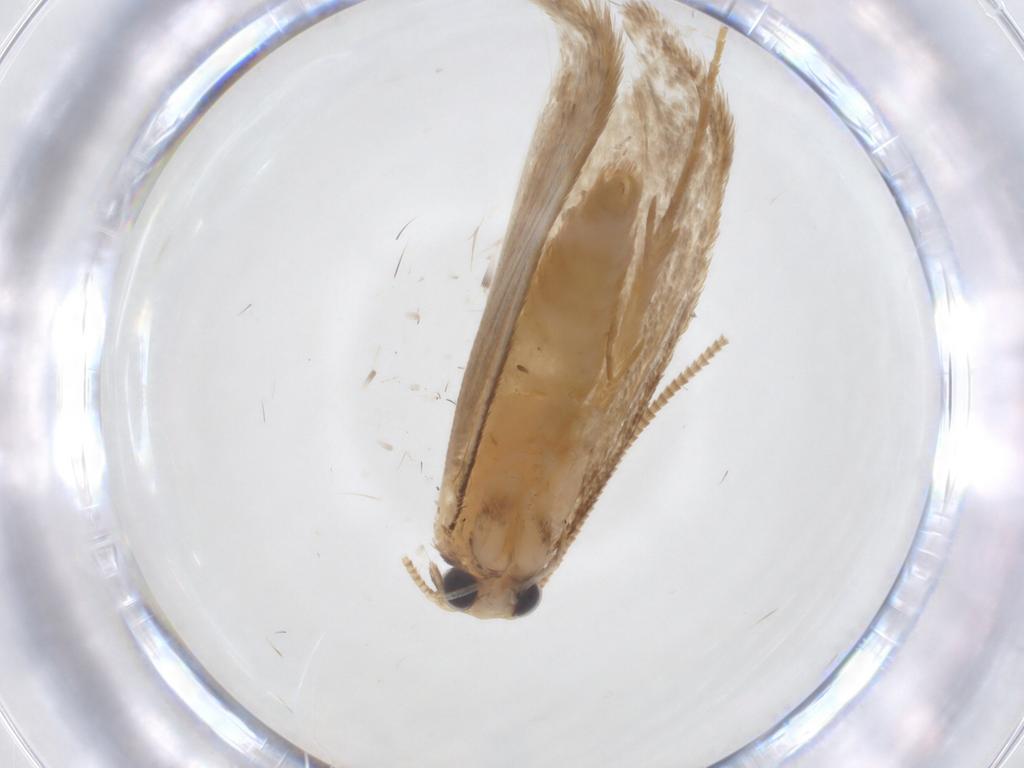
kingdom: Animalia
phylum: Arthropoda
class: Insecta
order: Lepidoptera
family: Tineidae
